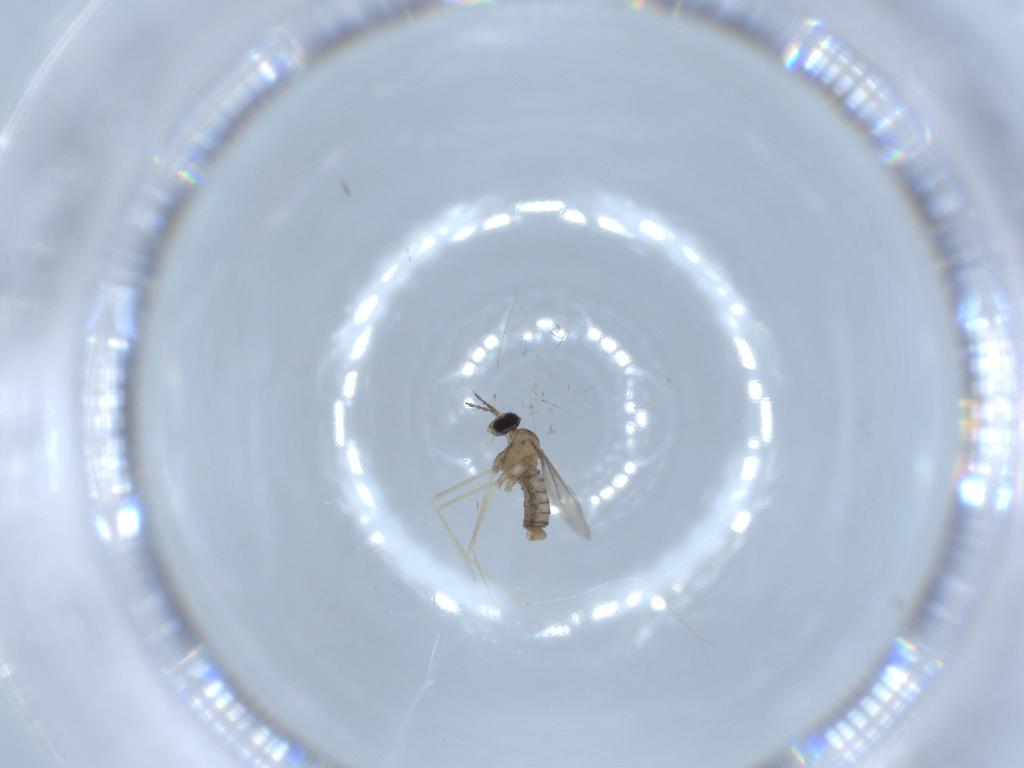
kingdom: Animalia
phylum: Arthropoda
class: Insecta
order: Diptera
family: Cecidomyiidae
